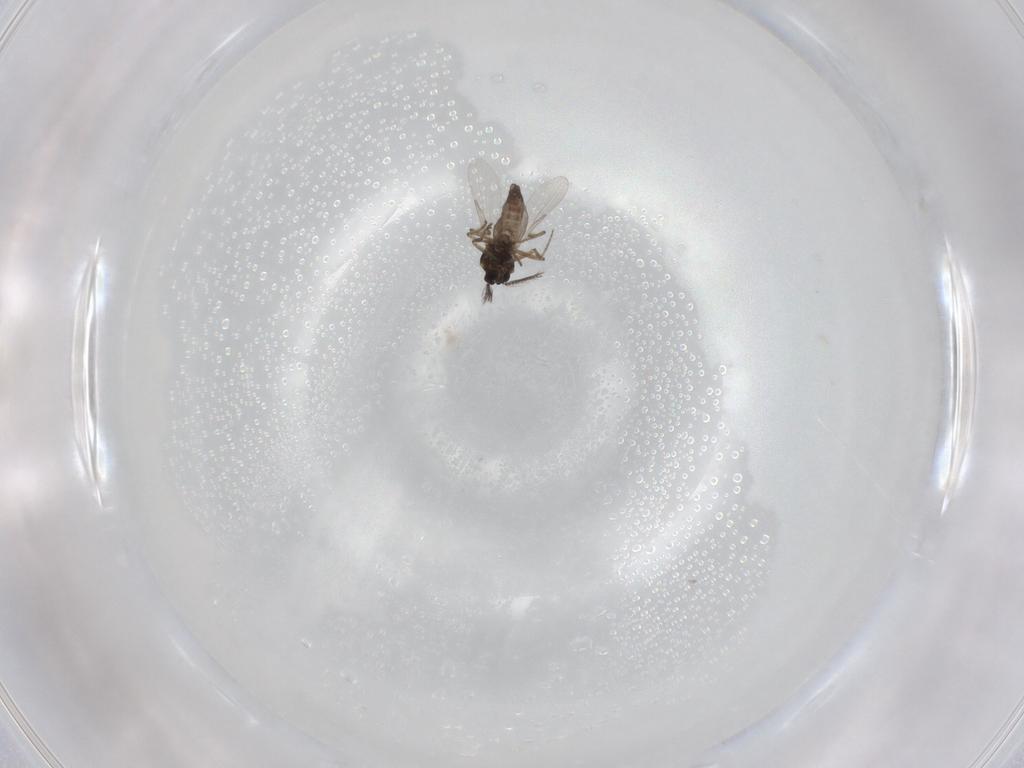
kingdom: Animalia
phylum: Arthropoda
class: Insecta
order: Diptera
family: Ceratopogonidae
